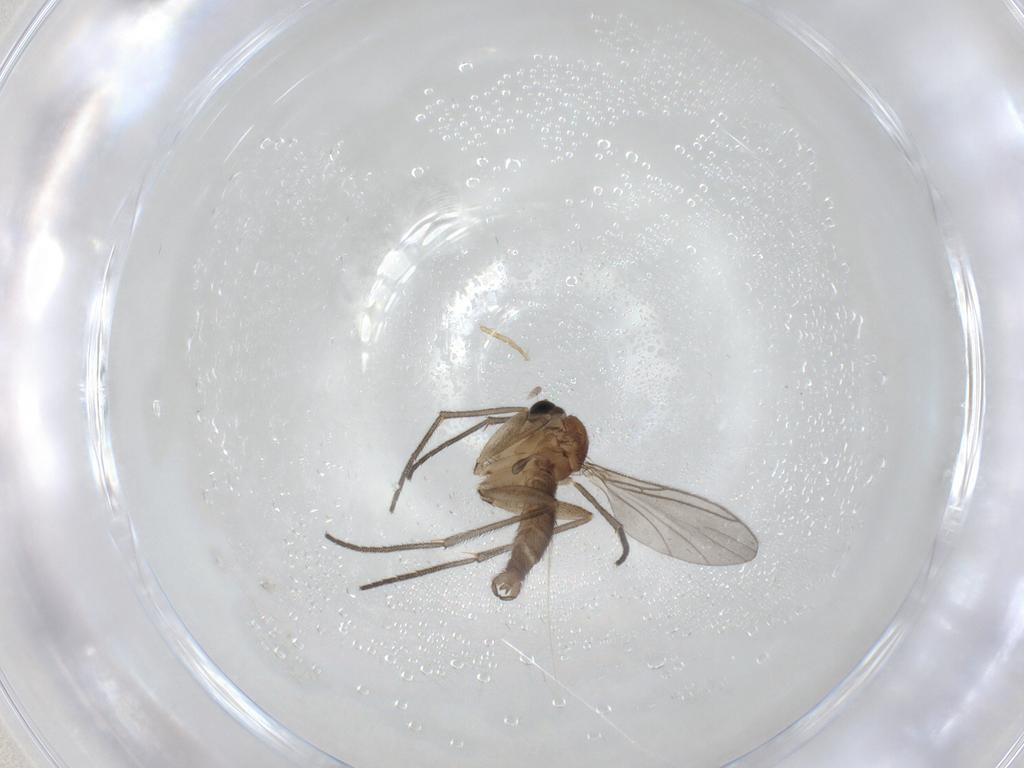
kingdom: Animalia
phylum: Arthropoda
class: Insecta
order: Diptera
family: Sciaridae
